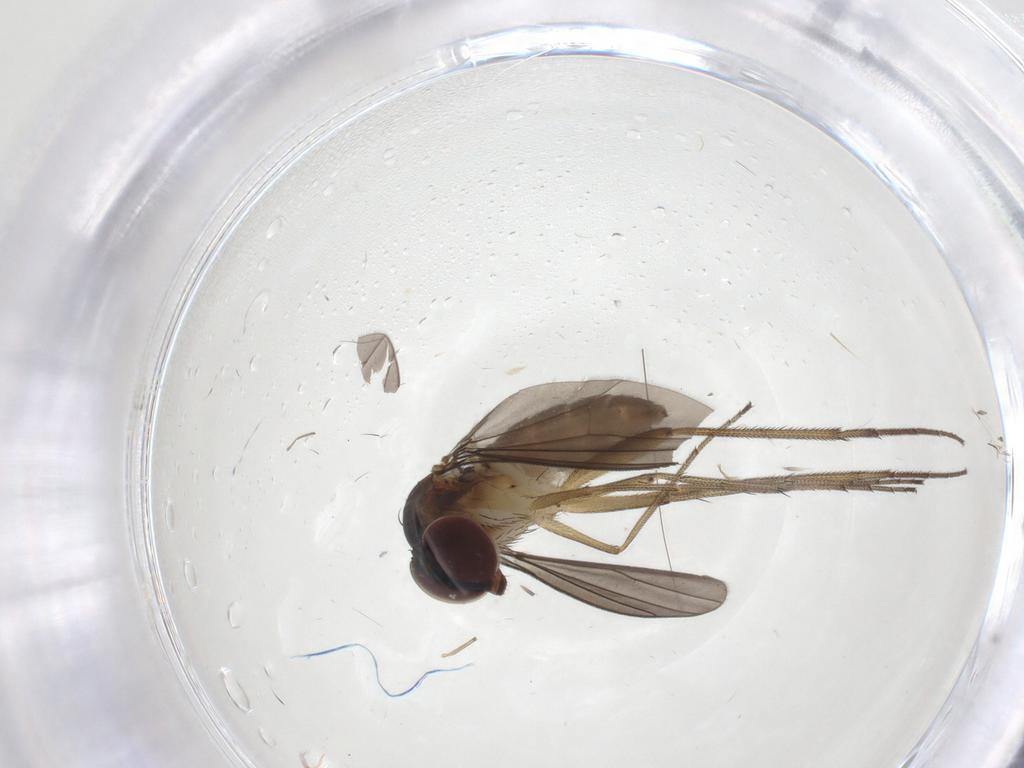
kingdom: Animalia
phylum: Arthropoda
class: Insecta
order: Diptera
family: Dolichopodidae
